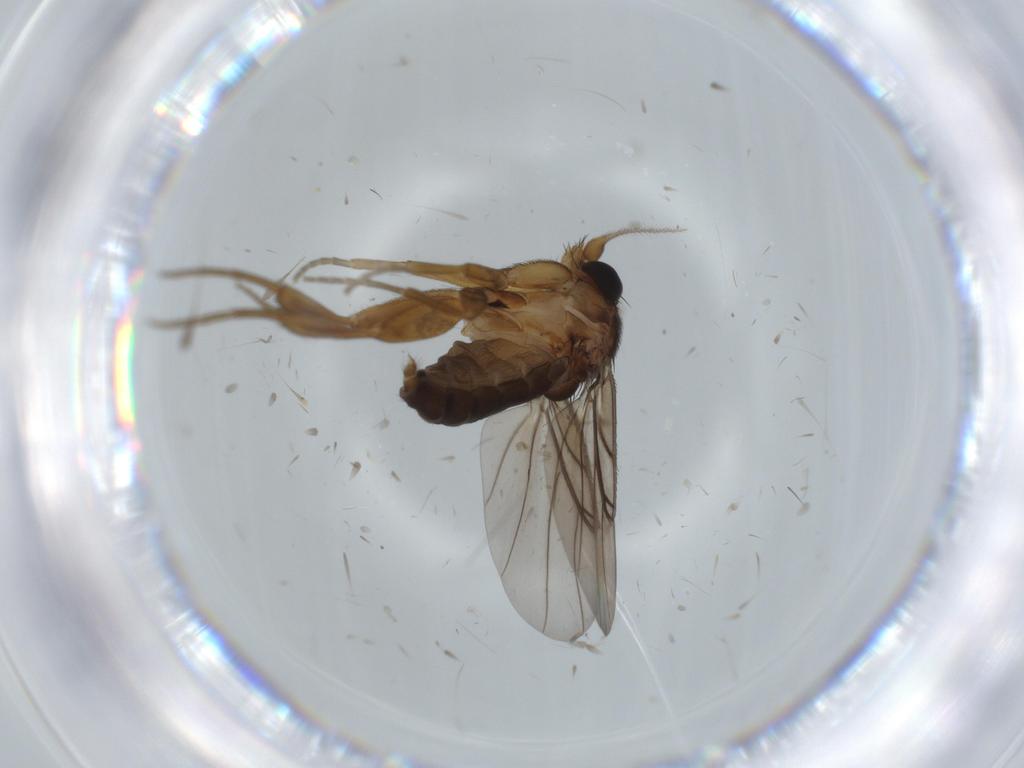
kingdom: Animalia
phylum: Arthropoda
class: Insecta
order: Diptera
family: Phoridae
